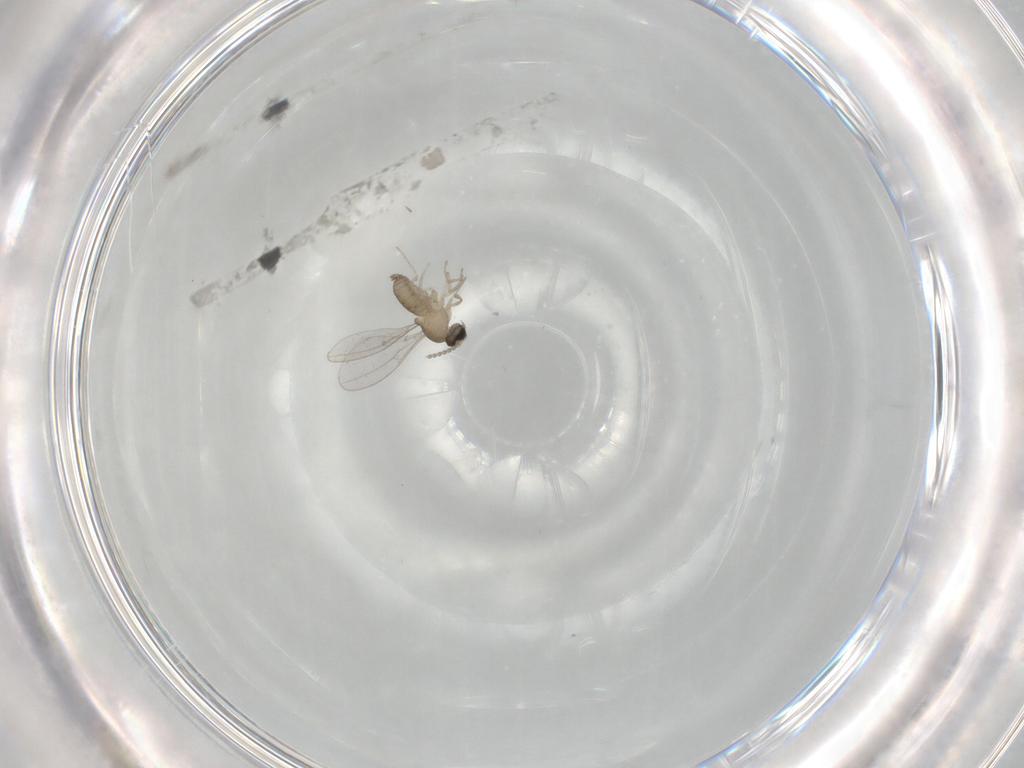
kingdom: Animalia
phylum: Arthropoda
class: Insecta
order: Diptera
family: Cecidomyiidae
